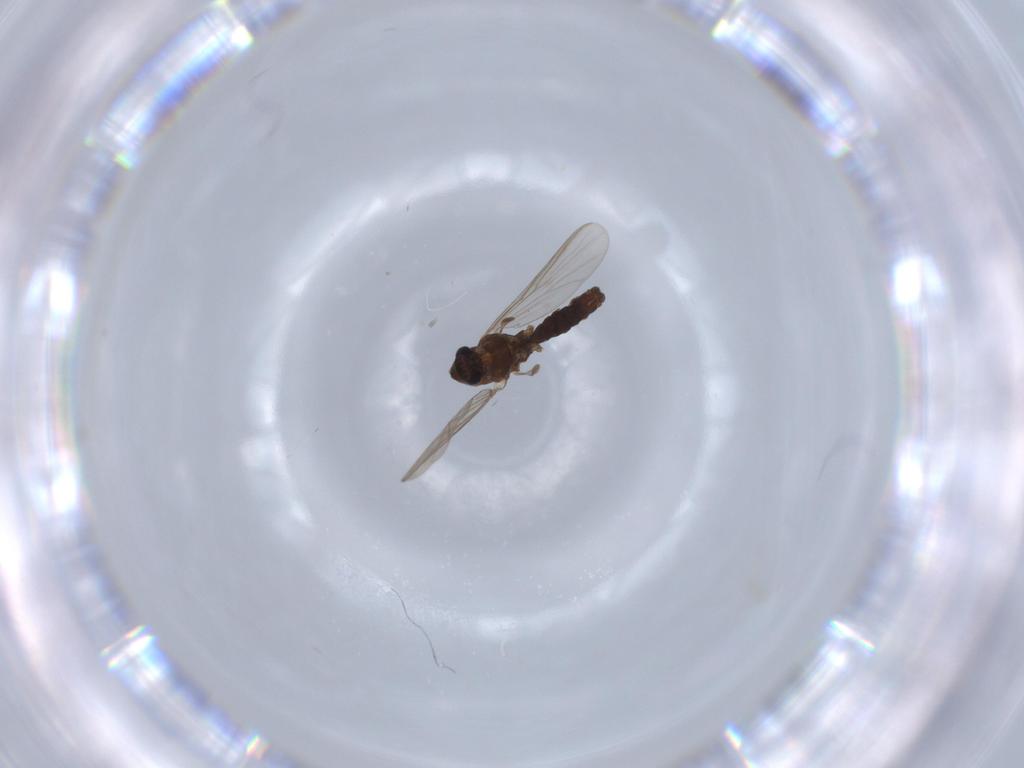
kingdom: Animalia
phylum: Arthropoda
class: Insecta
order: Diptera
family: Chironomidae
